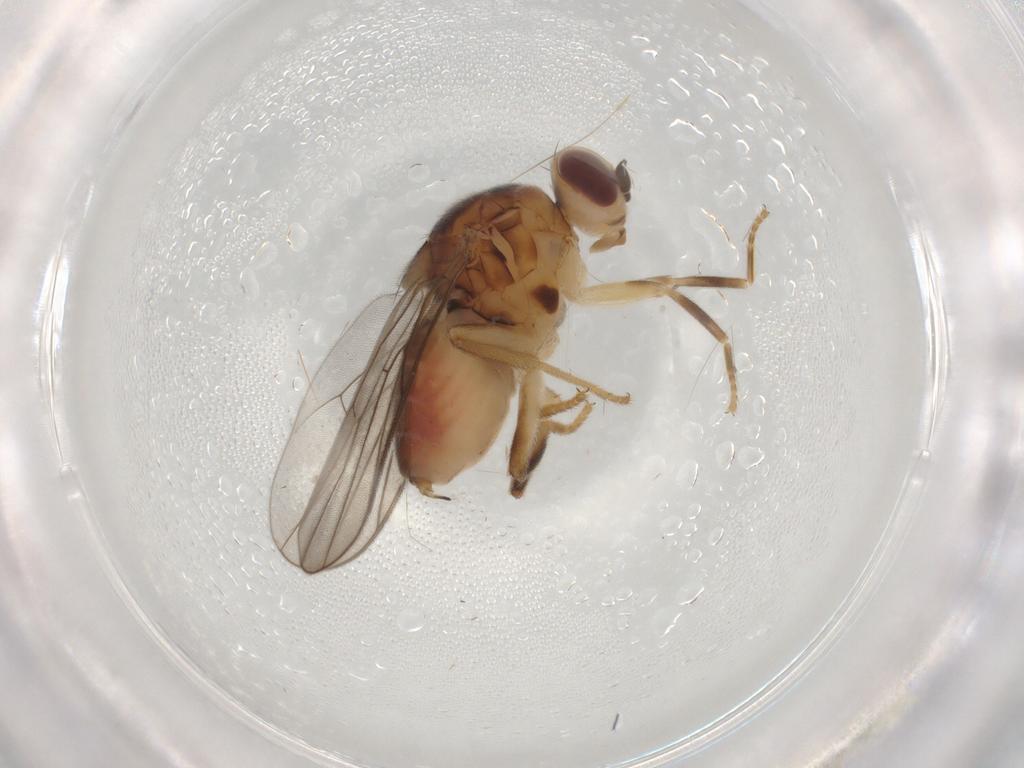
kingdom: Animalia
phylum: Arthropoda
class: Insecta
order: Diptera
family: Chloropidae
